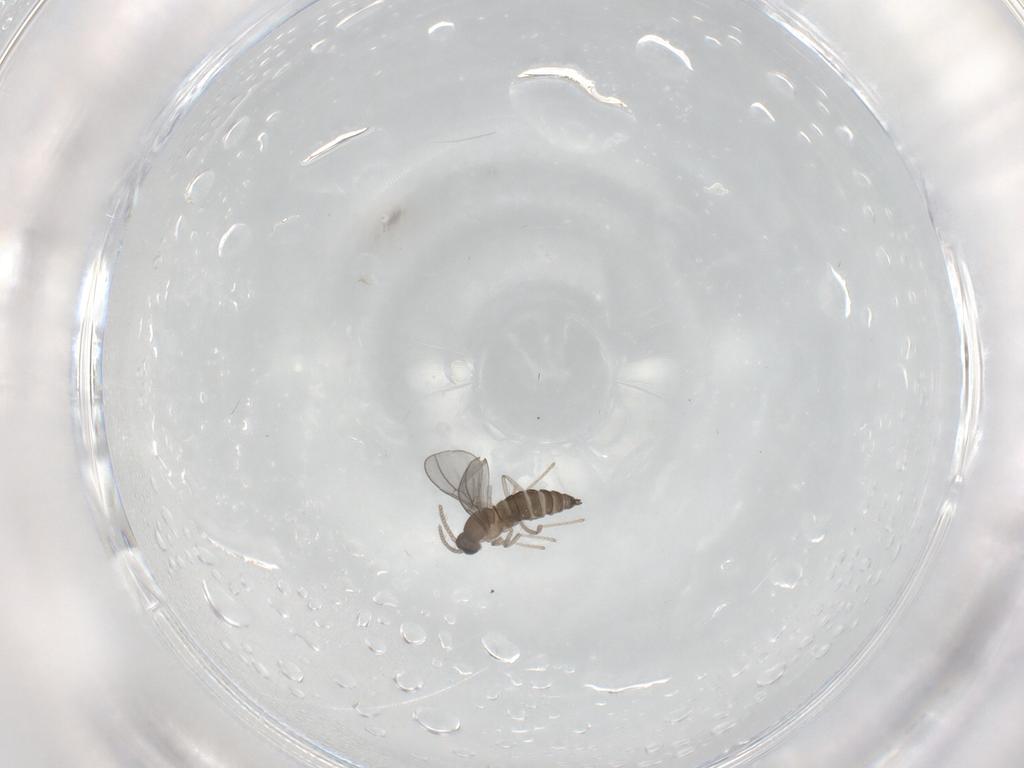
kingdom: Animalia
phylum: Arthropoda
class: Insecta
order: Diptera
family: Cecidomyiidae
